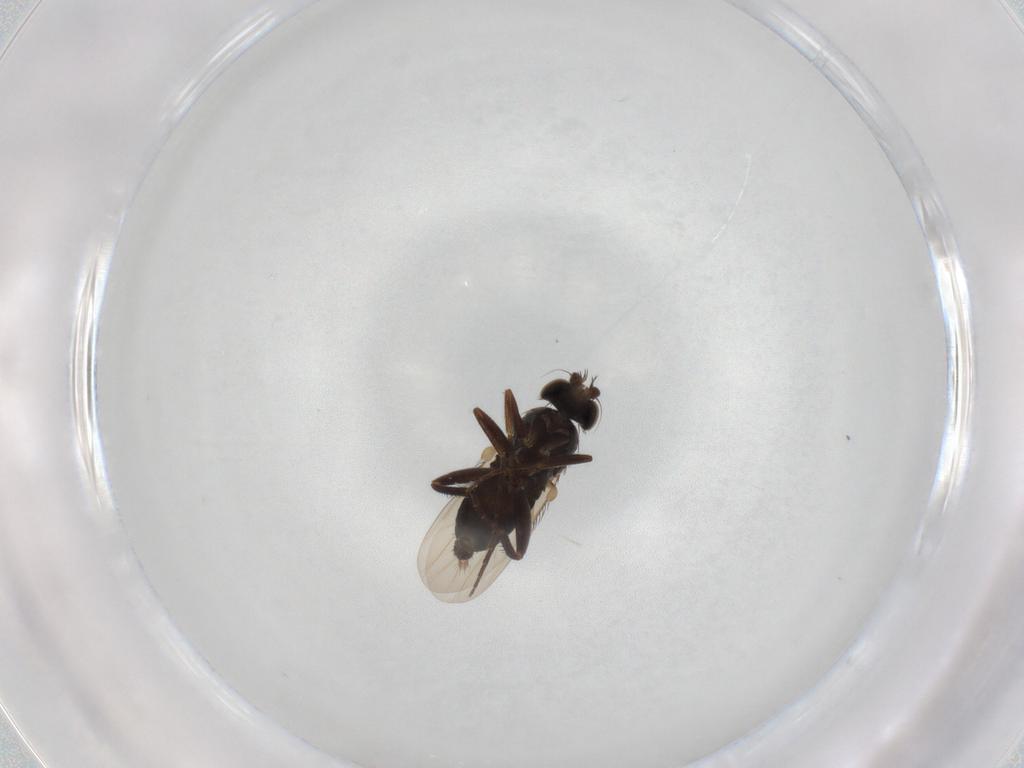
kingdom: Animalia
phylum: Arthropoda
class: Insecta
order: Diptera
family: Phoridae
